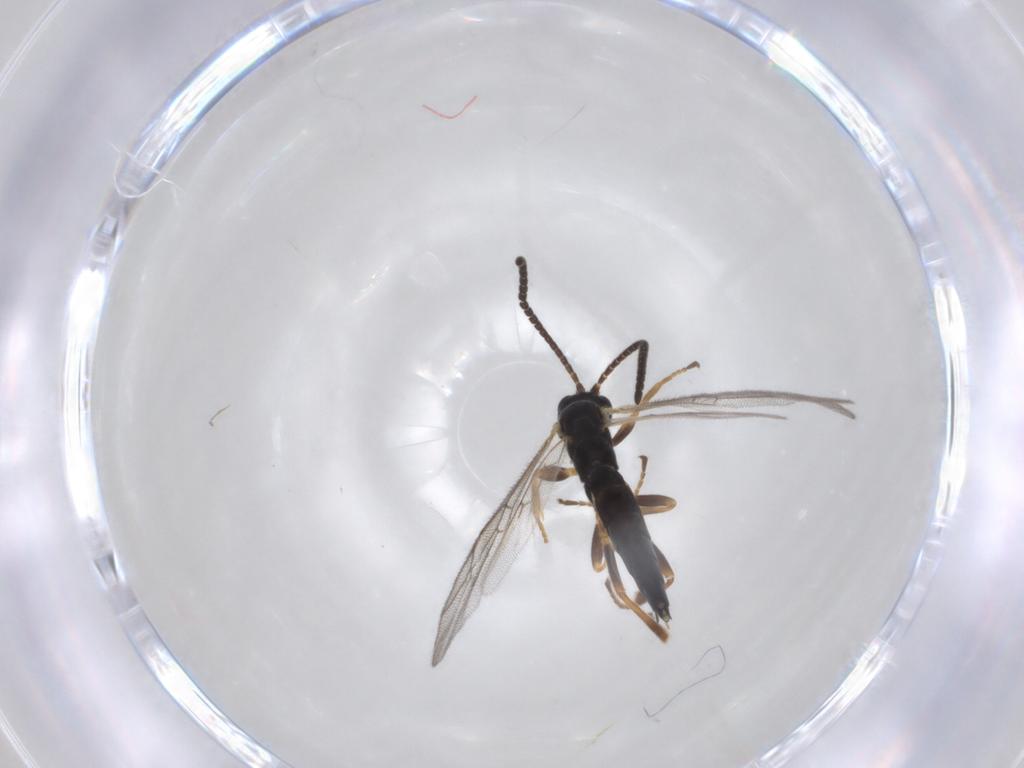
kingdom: Animalia
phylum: Arthropoda
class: Insecta
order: Hymenoptera
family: Ichneumonidae
